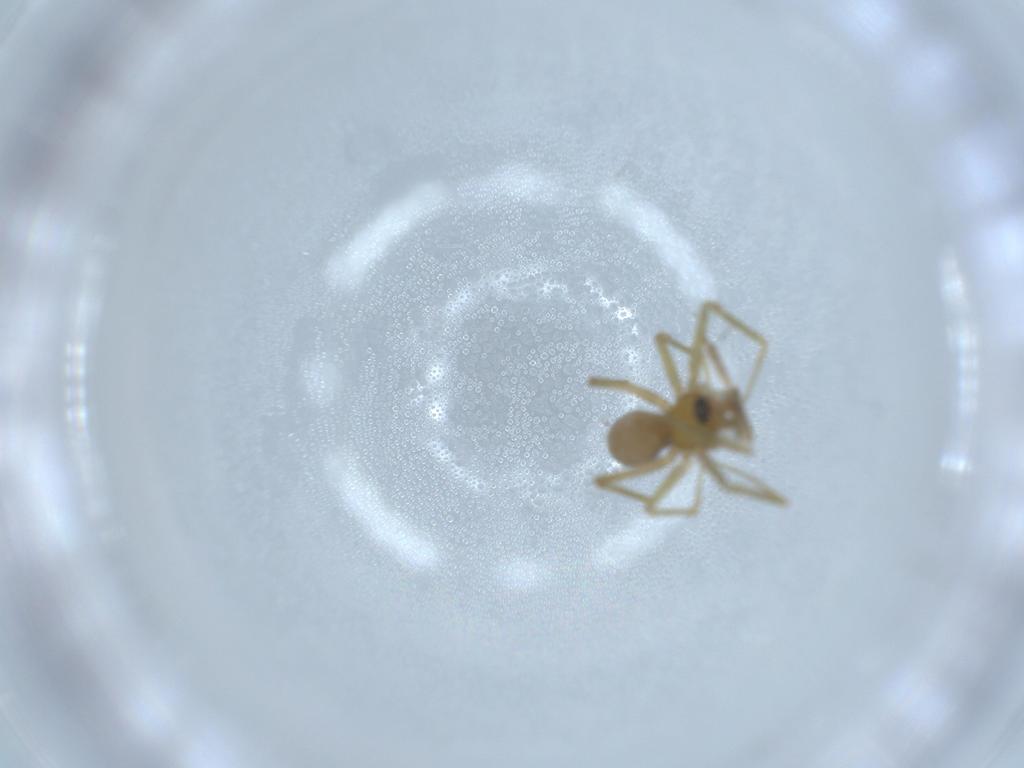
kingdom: Animalia
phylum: Arthropoda
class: Arachnida
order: Araneae
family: Linyphiidae
